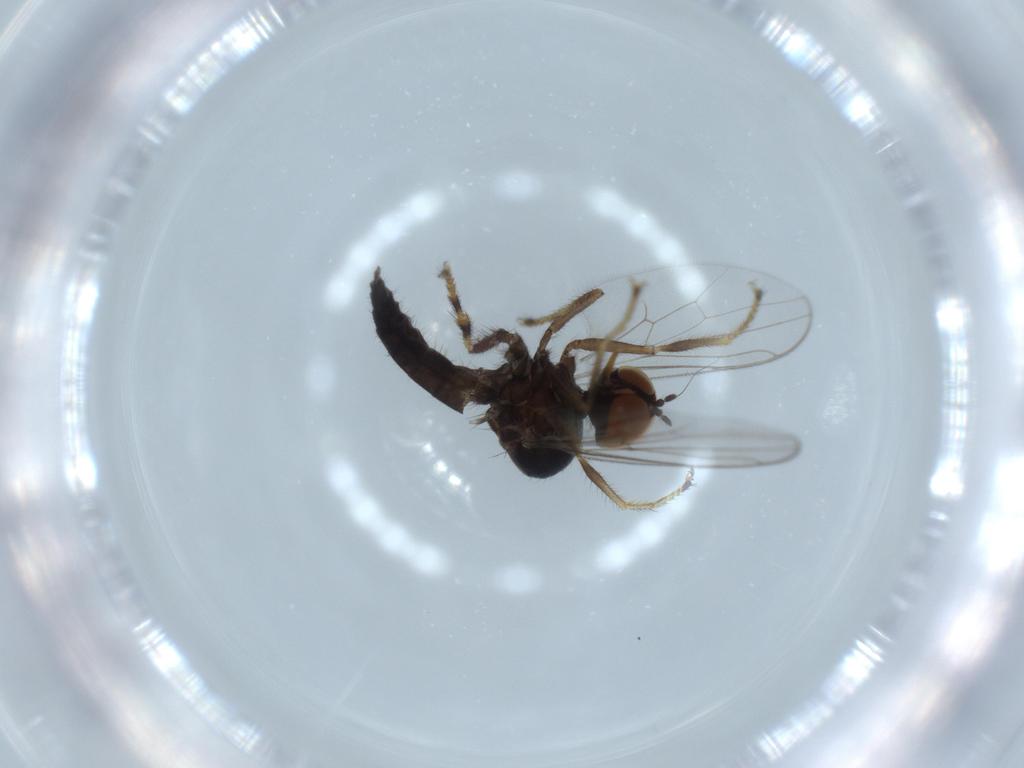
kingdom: Animalia
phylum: Arthropoda
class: Insecta
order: Diptera
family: Hybotidae
